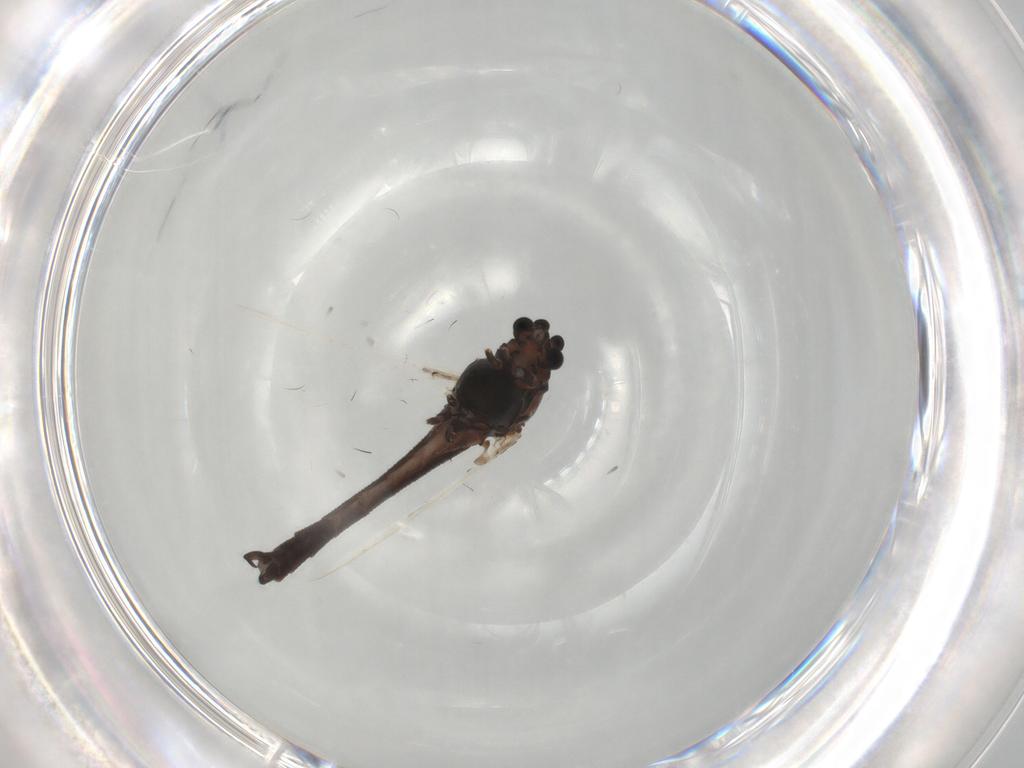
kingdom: Animalia
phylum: Arthropoda
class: Insecta
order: Diptera
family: Chironomidae
